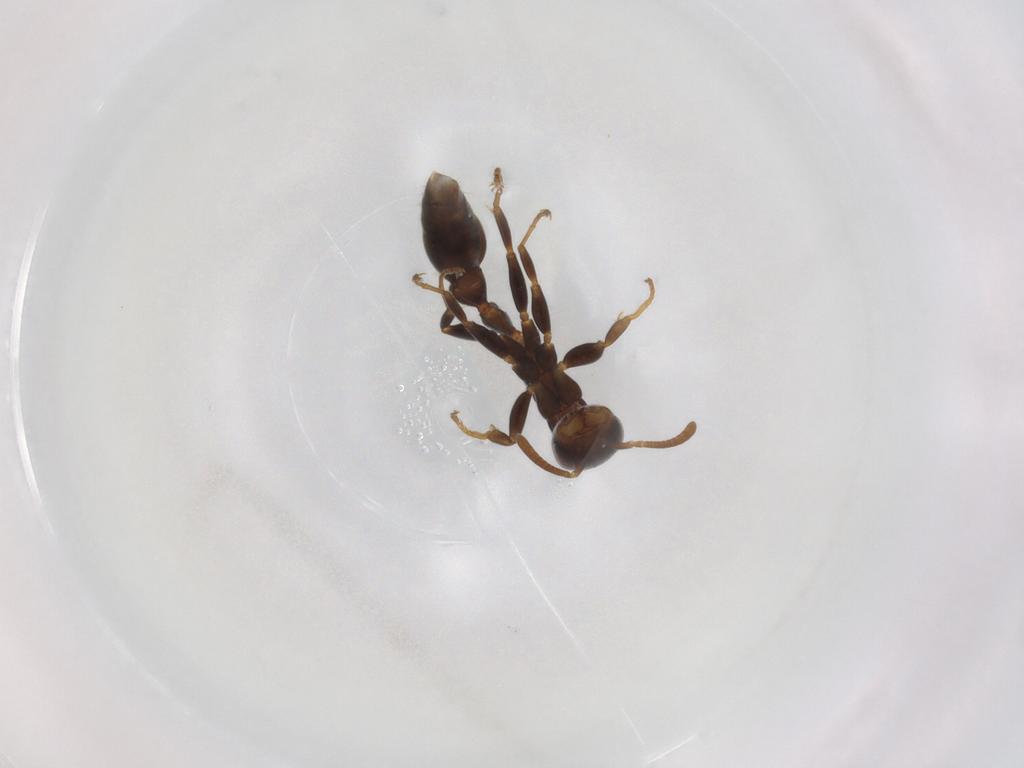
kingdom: Animalia
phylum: Arthropoda
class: Insecta
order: Hymenoptera
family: Formicidae
